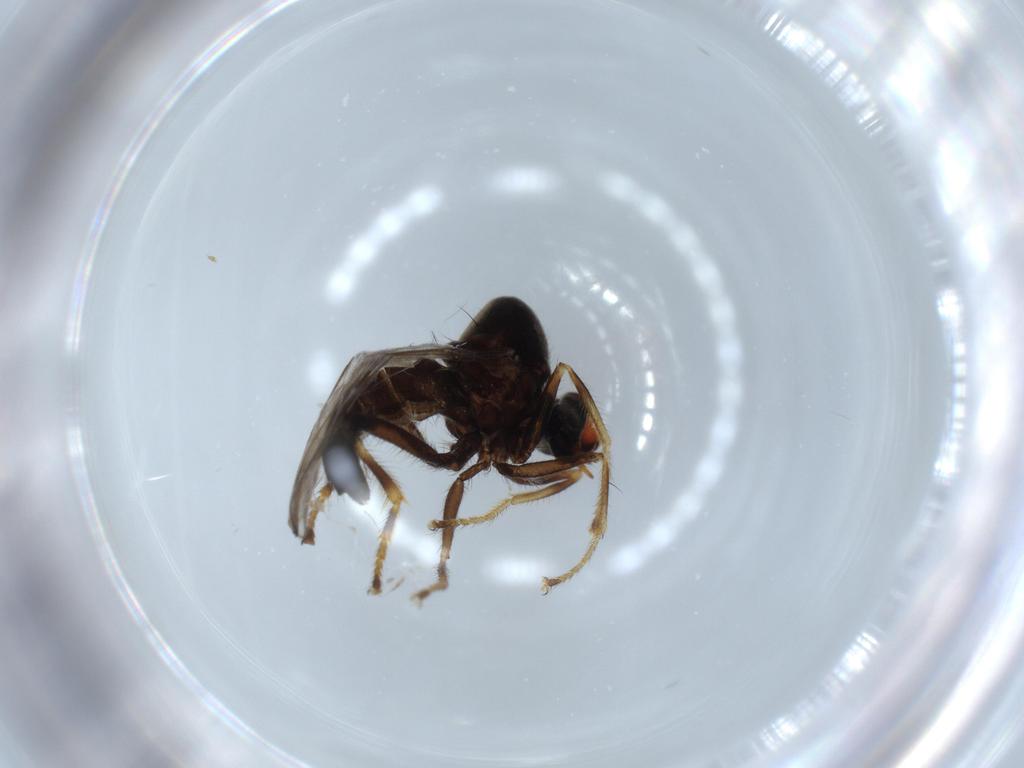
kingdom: Animalia
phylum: Arthropoda
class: Insecta
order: Diptera
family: Hybotidae
